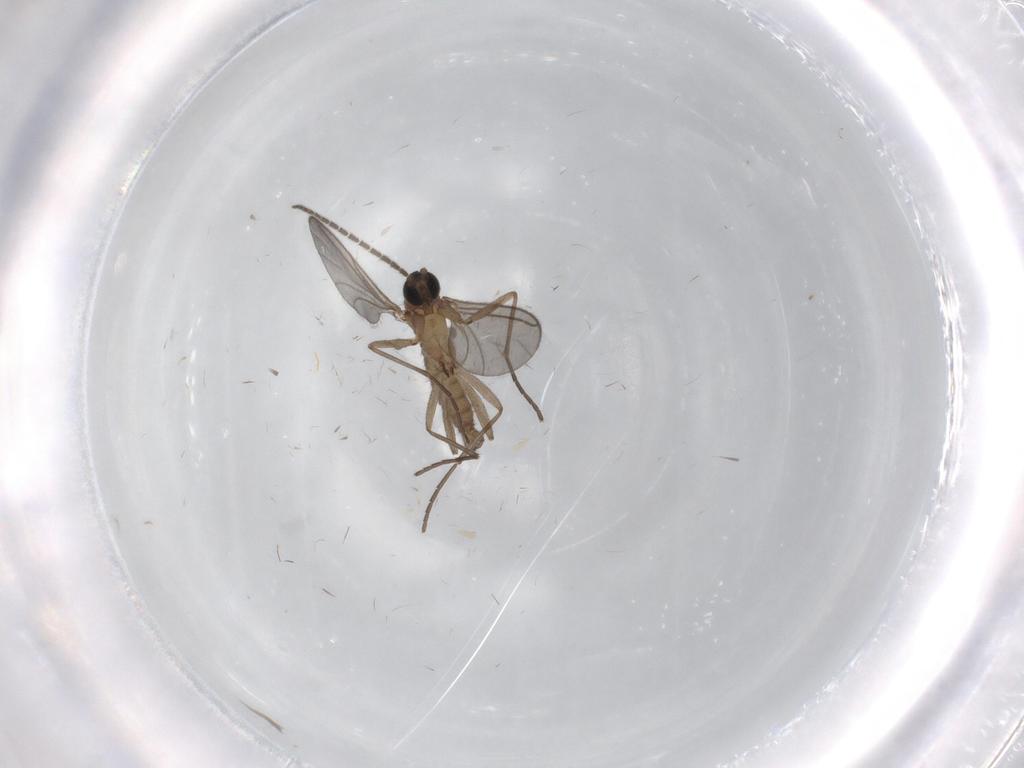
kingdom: Animalia
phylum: Arthropoda
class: Insecta
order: Diptera
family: Sciaridae
